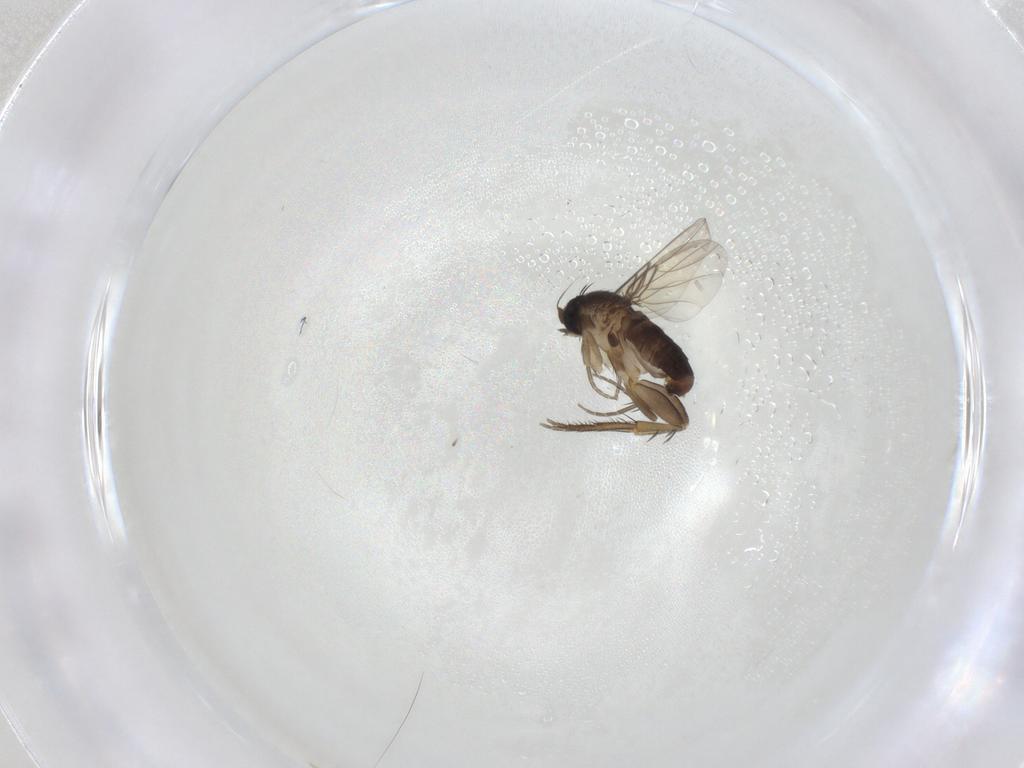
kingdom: Animalia
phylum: Arthropoda
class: Insecta
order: Diptera
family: Phoridae
